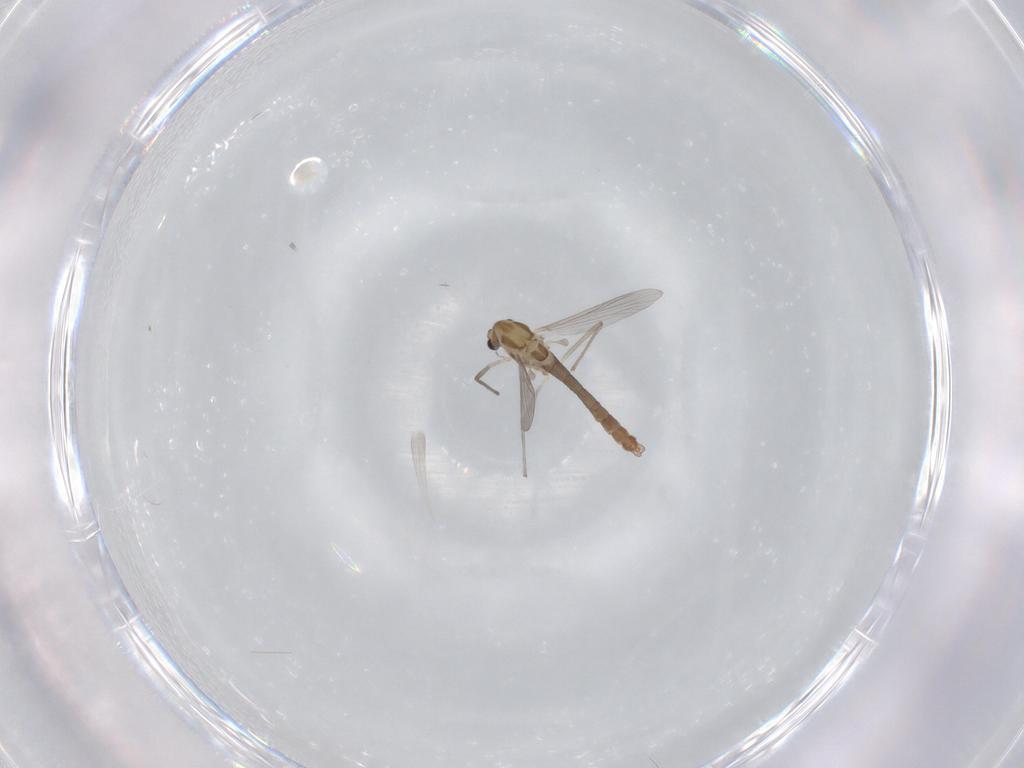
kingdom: Animalia
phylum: Arthropoda
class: Insecta
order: Diptera
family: Chironomidae
